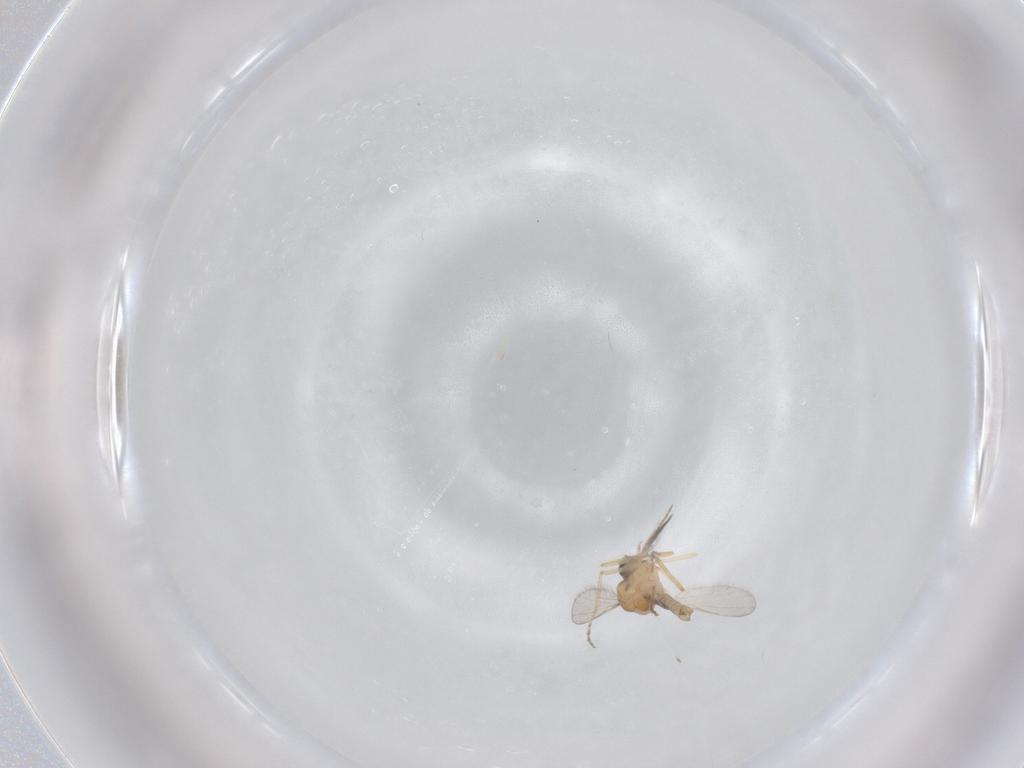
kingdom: Animalia
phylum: Arthropoda
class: Insecta
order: Diptera
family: Ceratopogonidae
